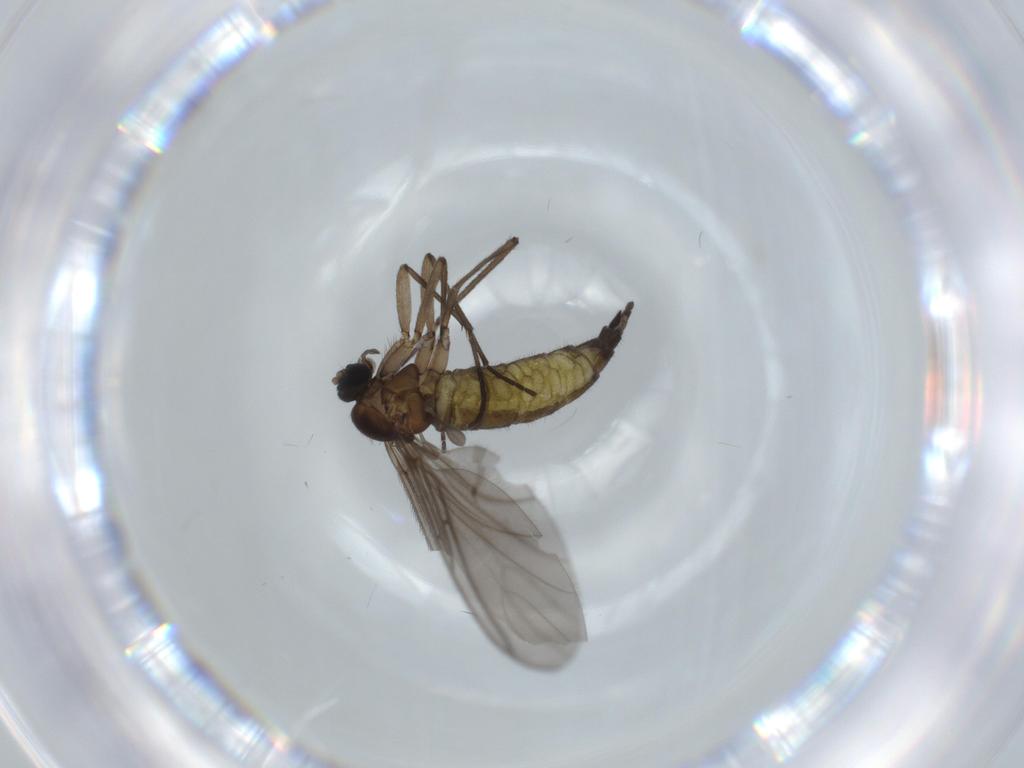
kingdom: Animalia
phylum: Arthropoda
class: Insecta
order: Diptera
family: Sciaridae
